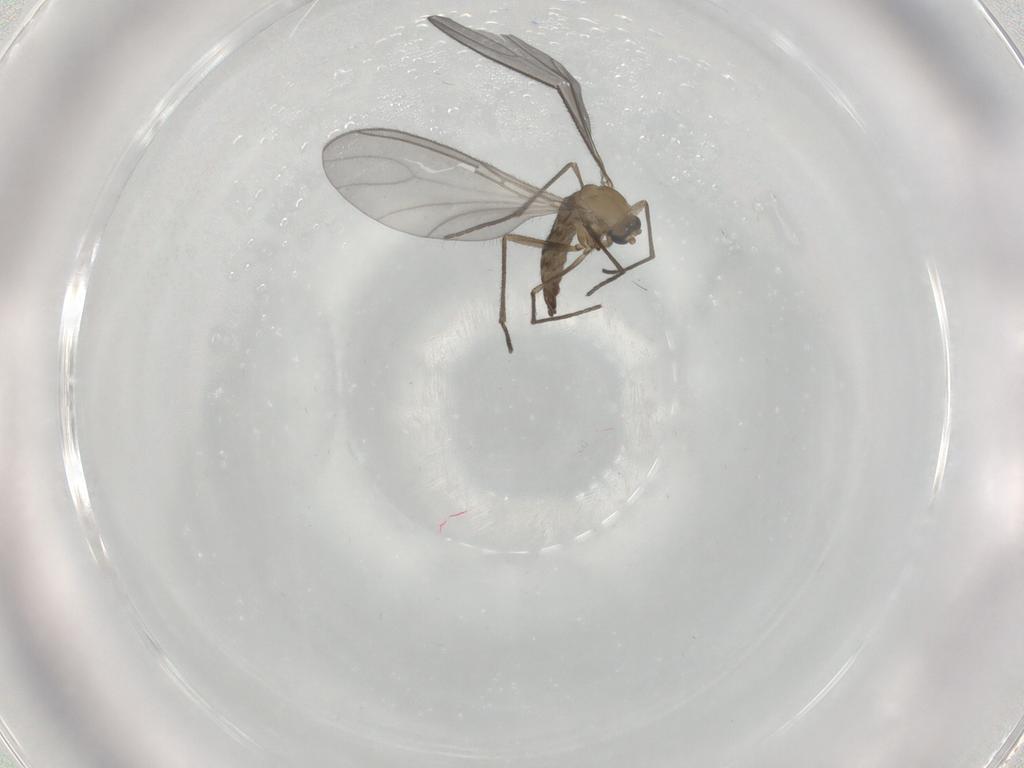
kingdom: Animalia
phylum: Arthropoda
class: Insecta
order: Diptera
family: Sciaridae
